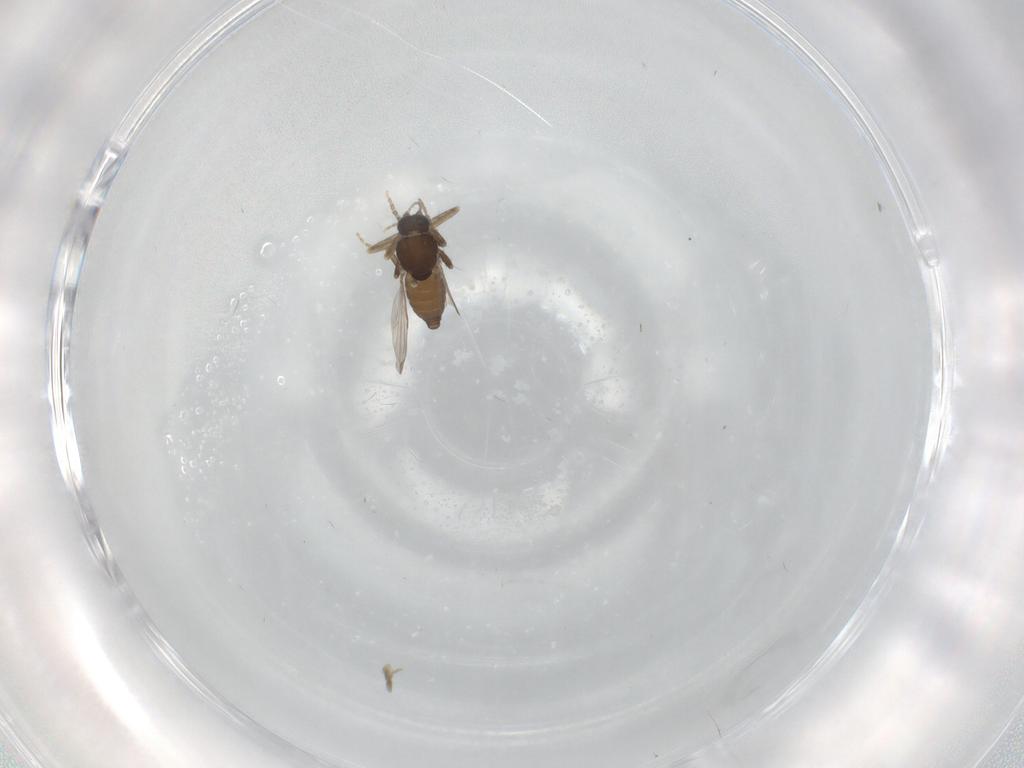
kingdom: Animalia
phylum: Arthropoda
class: Insecta
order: Diptera
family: Ceratopogonidae
